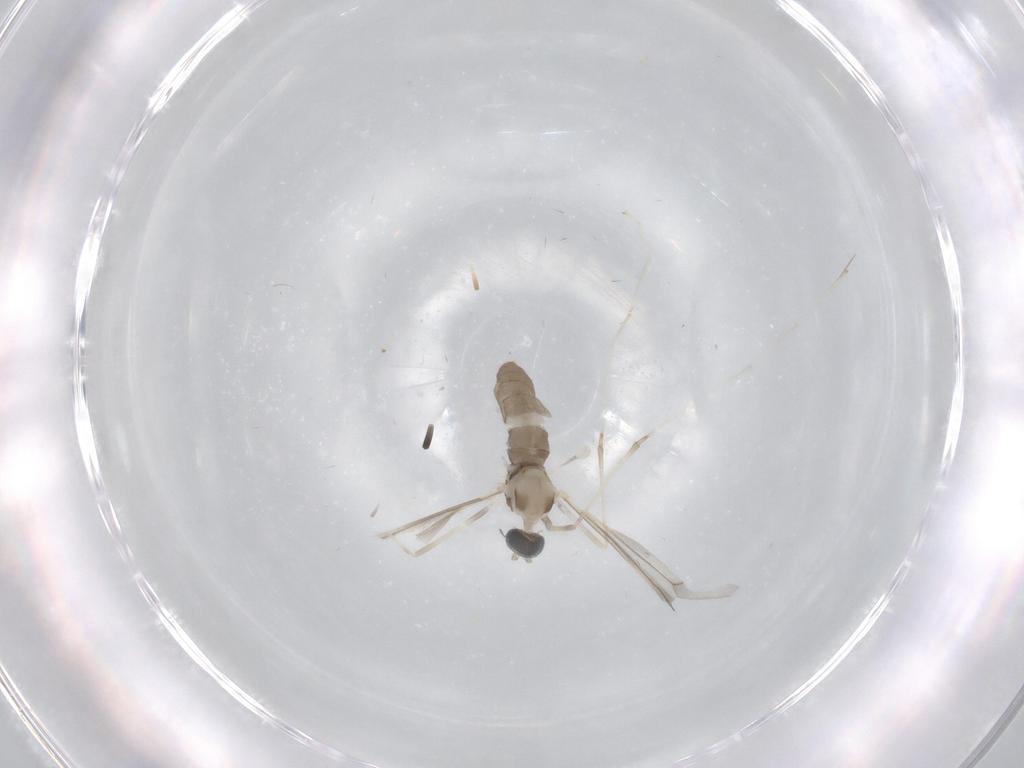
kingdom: Animalia
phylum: Arthropoda
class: Insecta
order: Diptera
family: Cecidomyiidae
